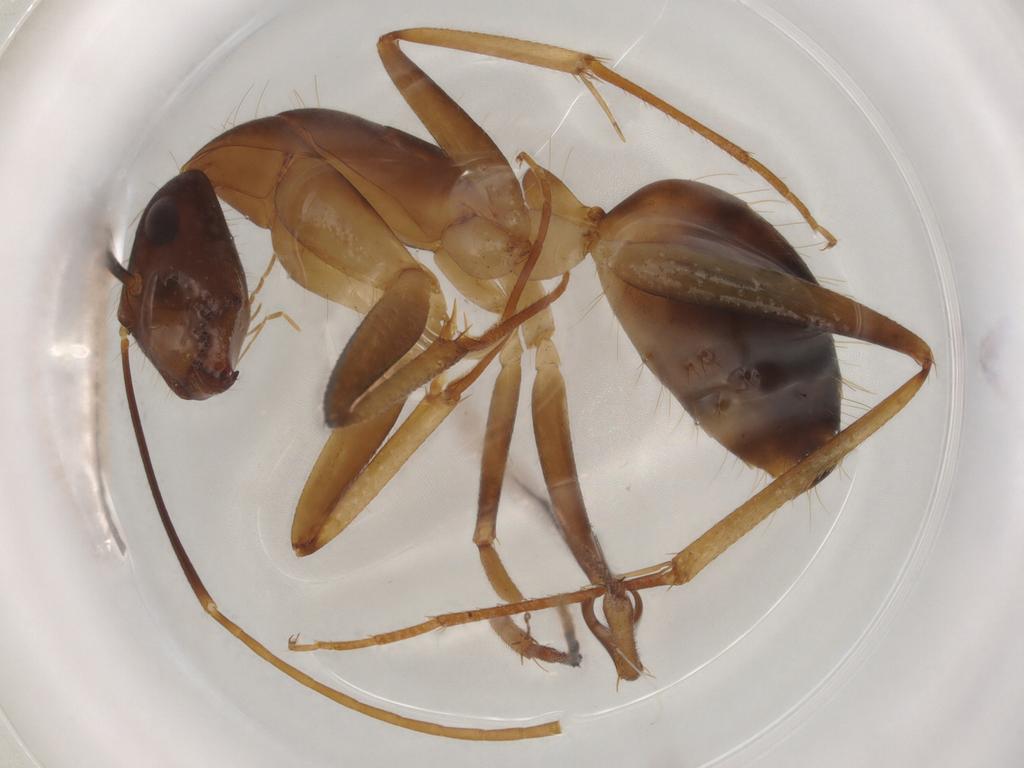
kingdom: Animalia
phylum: Arthropoda
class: Insecta
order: Hymenoptera
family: Formicidae
